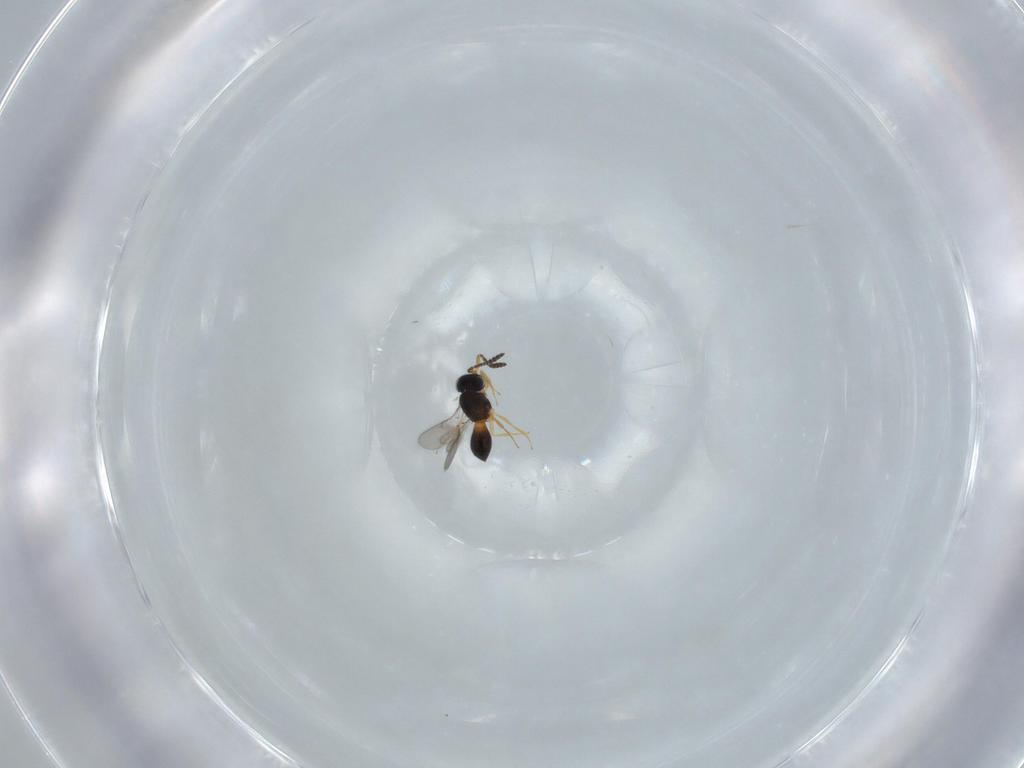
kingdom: Animalia
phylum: Arthropoda
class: Insecta
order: Hymenoptera
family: Scelionidae
